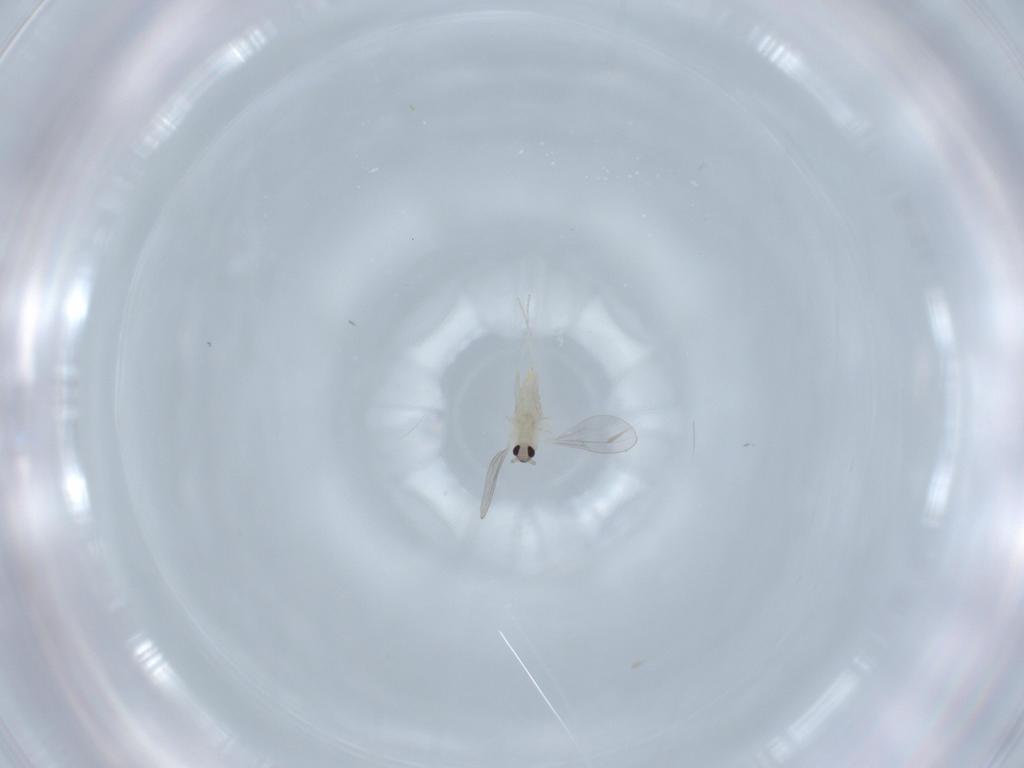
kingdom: Animalia
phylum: Arthropoda
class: Insecta
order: Diptera
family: Cecidomyiidae
